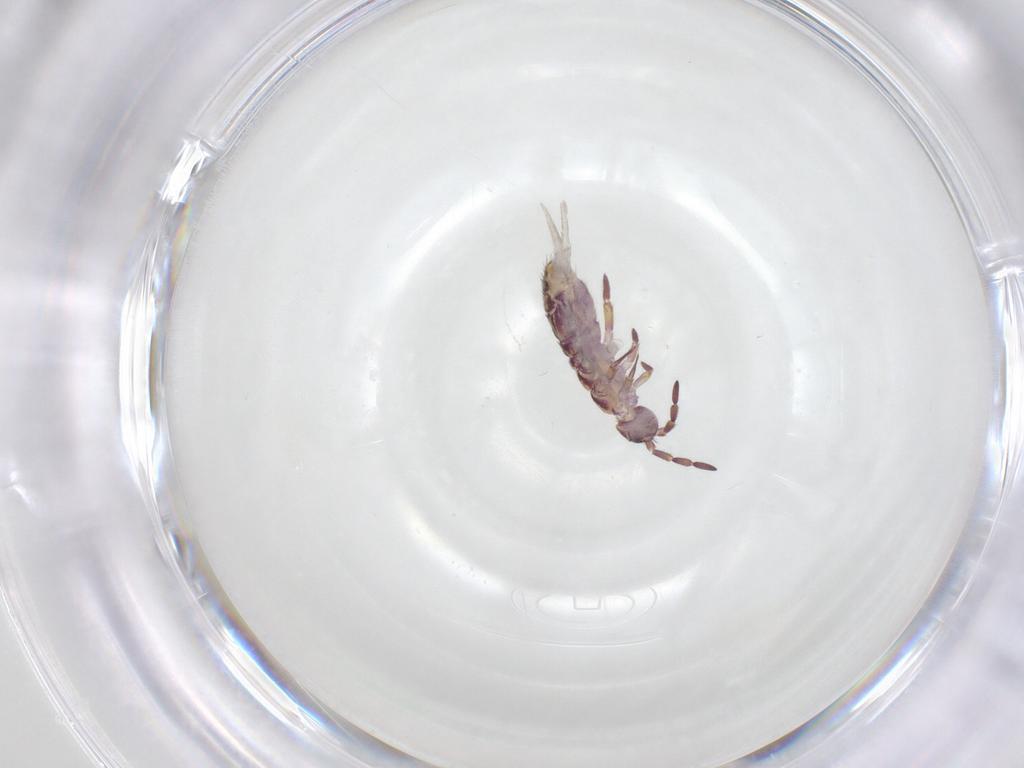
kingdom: Animalia
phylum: Arthropoda
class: Collembola
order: Entomobryomorpha
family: Isotomidae
